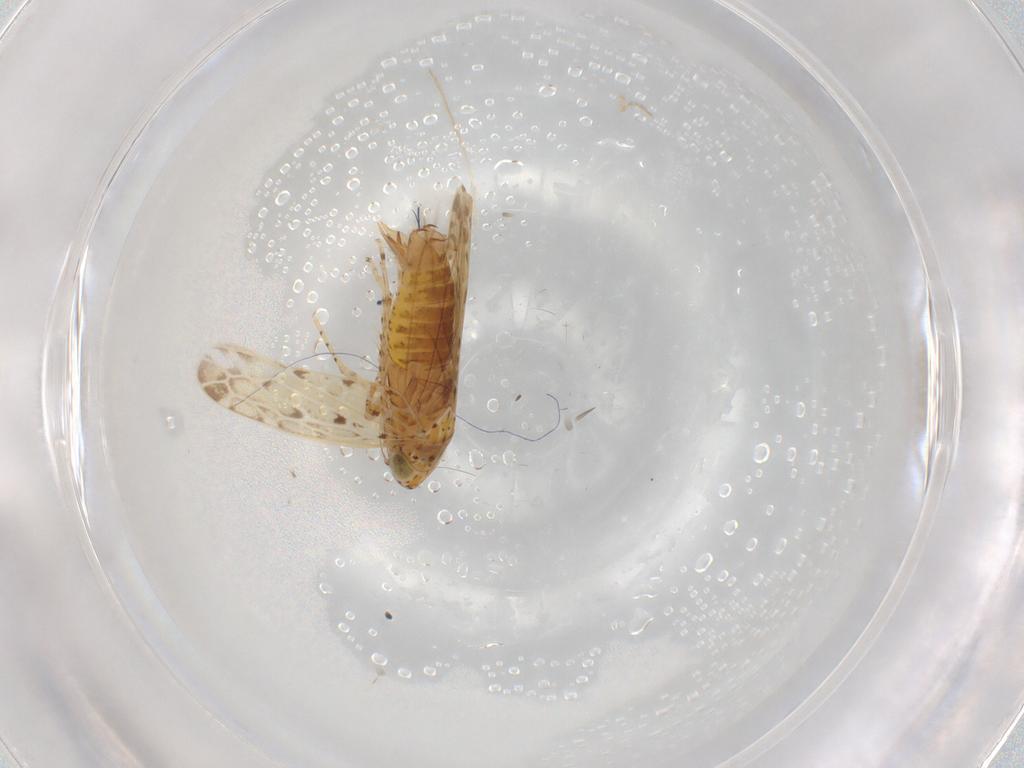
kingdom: Animalia
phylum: Arthropoda
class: Insecta
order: Hemiptera
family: Cicadellidae
